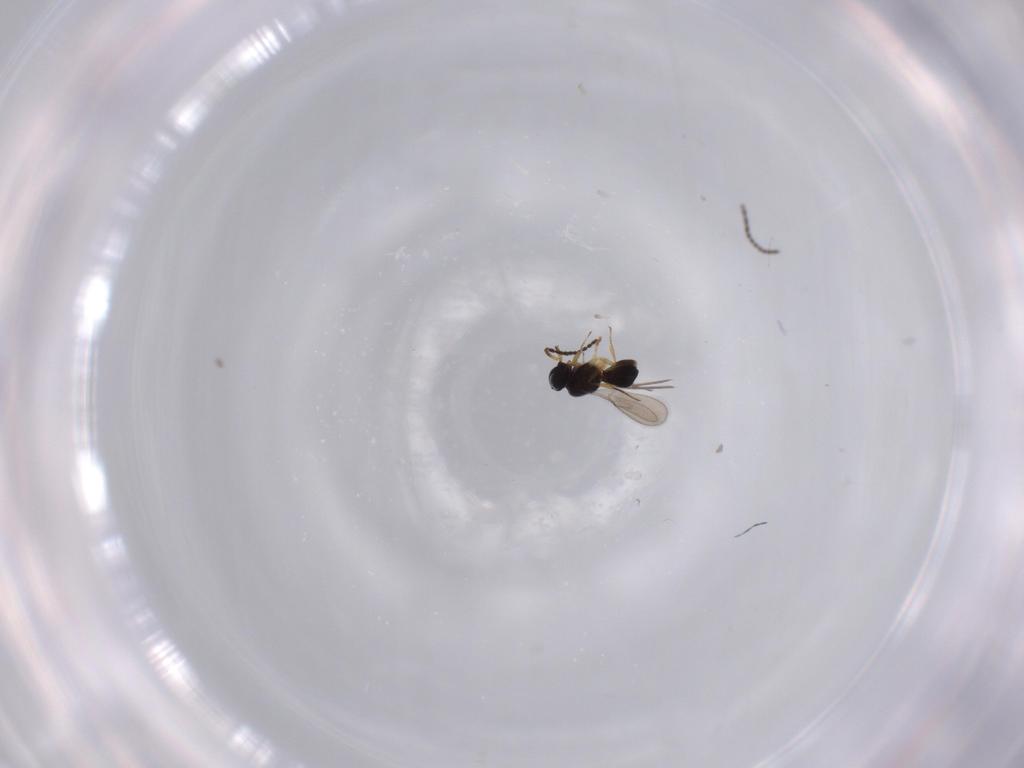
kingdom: Animalia
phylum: Arthropoda
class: Insecta
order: Hymenoptera
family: Scelionidae
